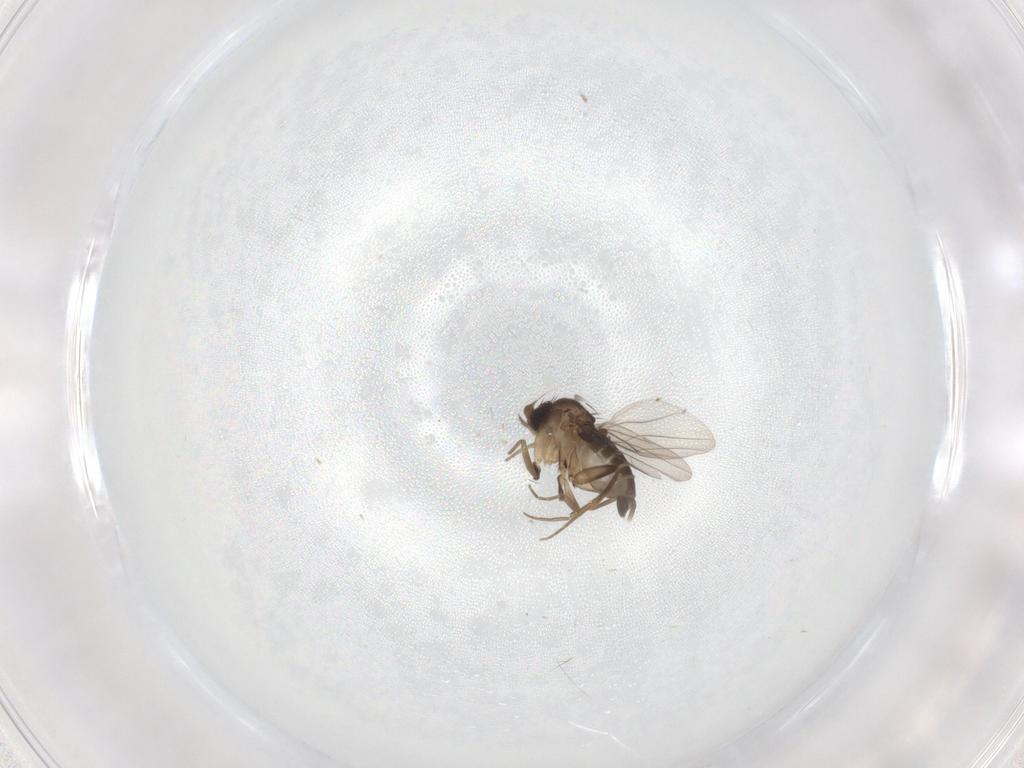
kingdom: Animalia
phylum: Arthropoda
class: Insecta
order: Diptera
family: Phoridae
